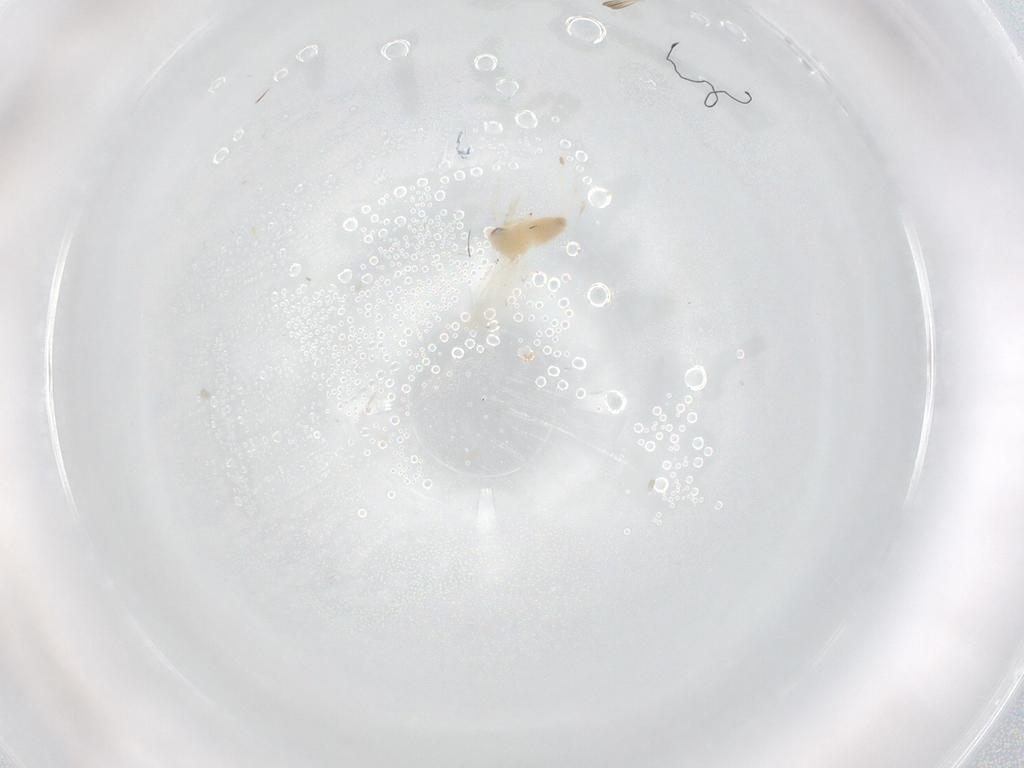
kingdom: Animalia
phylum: Arthropoda
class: Insecta
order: Hemiptera
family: Aleyrodidae
